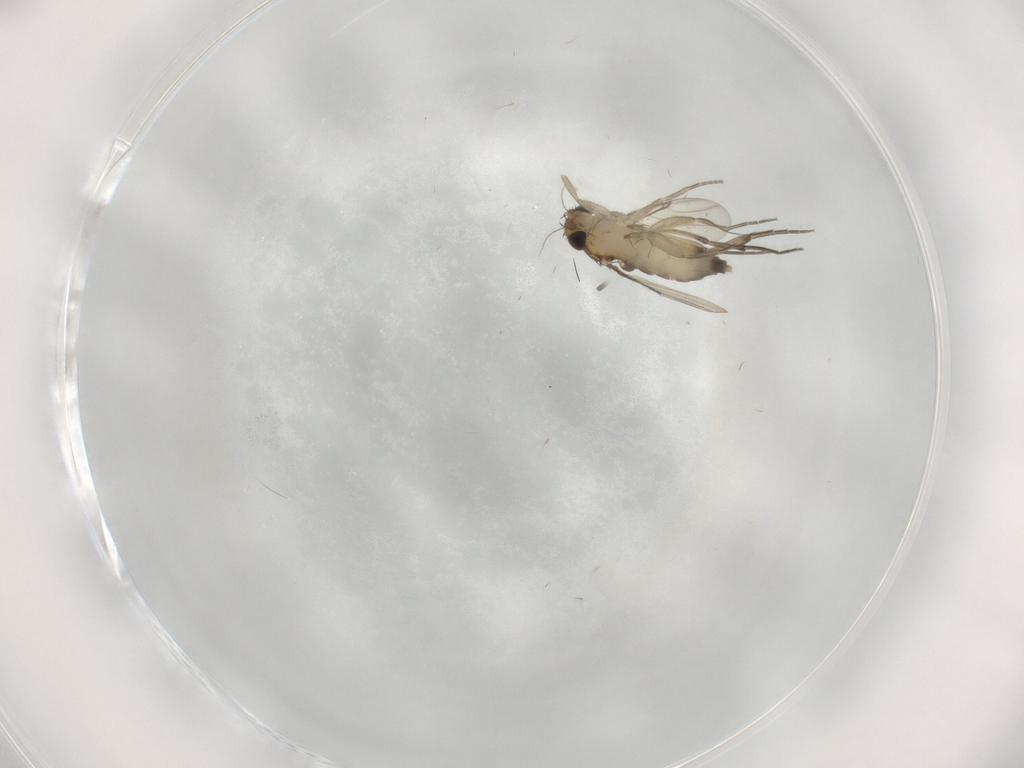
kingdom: Animalia
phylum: Arthropoda
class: Insecta
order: Diptera
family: Phoridae
